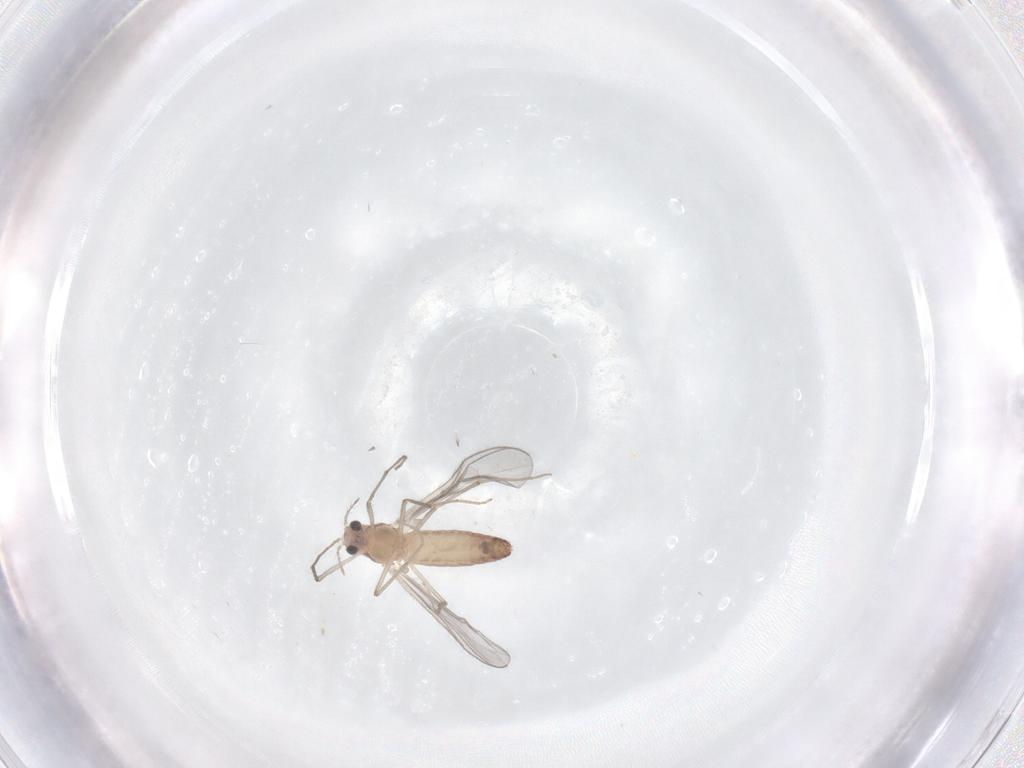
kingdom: Animalia
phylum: Arthropoda
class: Insecta
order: Diptera
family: Chironomidae
